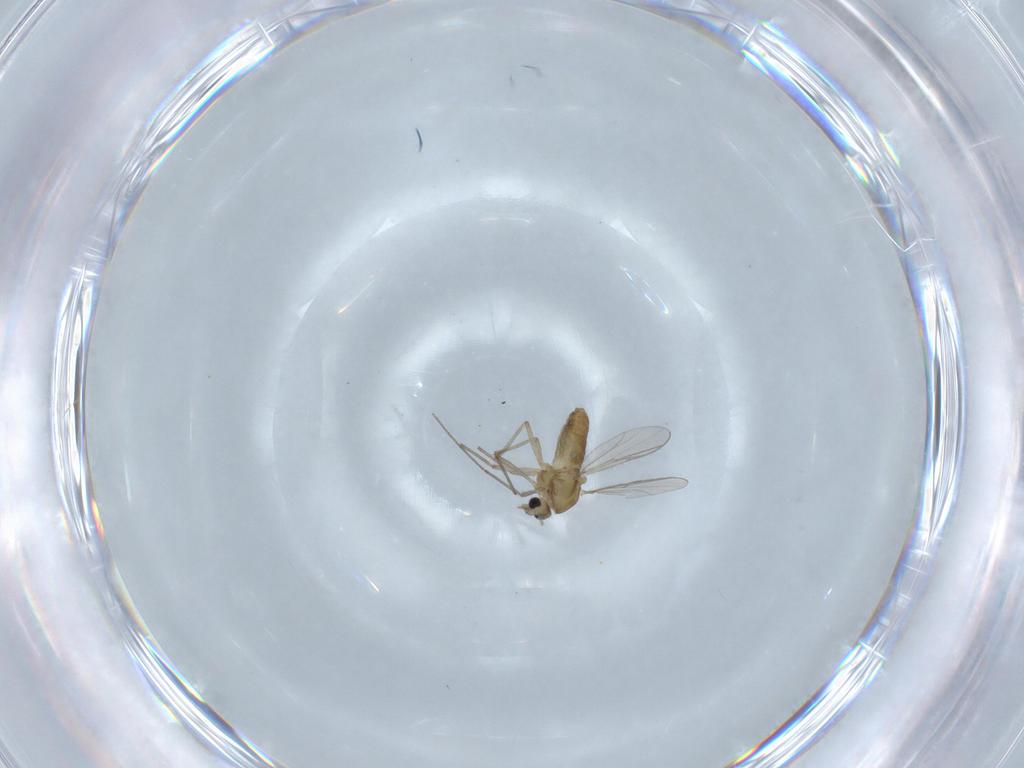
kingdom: Animalia
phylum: Arthropoda
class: Insecta
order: Diptera
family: Chironomidae
